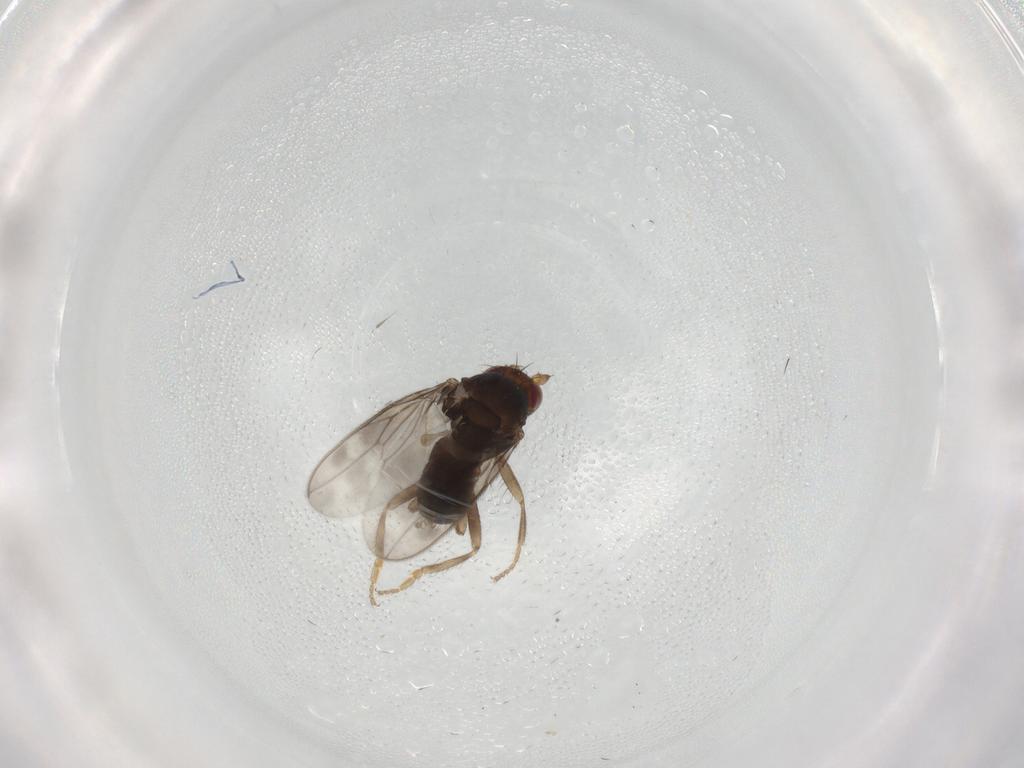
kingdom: Animalia
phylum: Arthropoda
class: Insecta
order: Diptera
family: Sphaeroceridae
